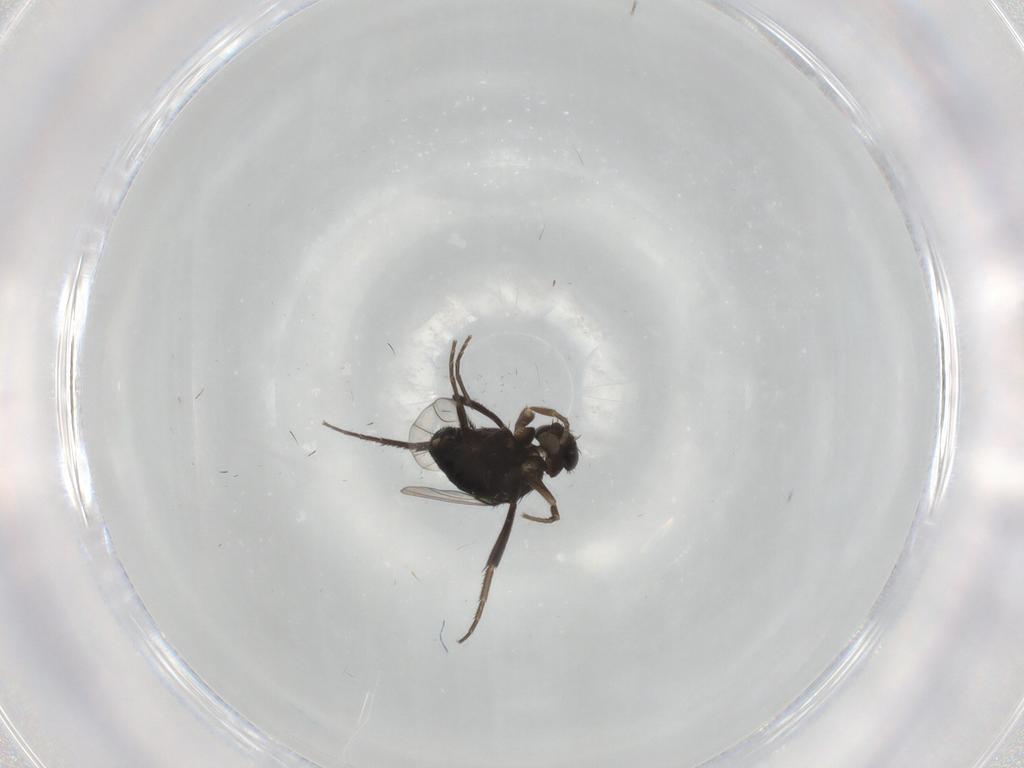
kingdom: Animalia
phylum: Arthropoda
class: Insecta
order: Diptera
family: Phoridae
